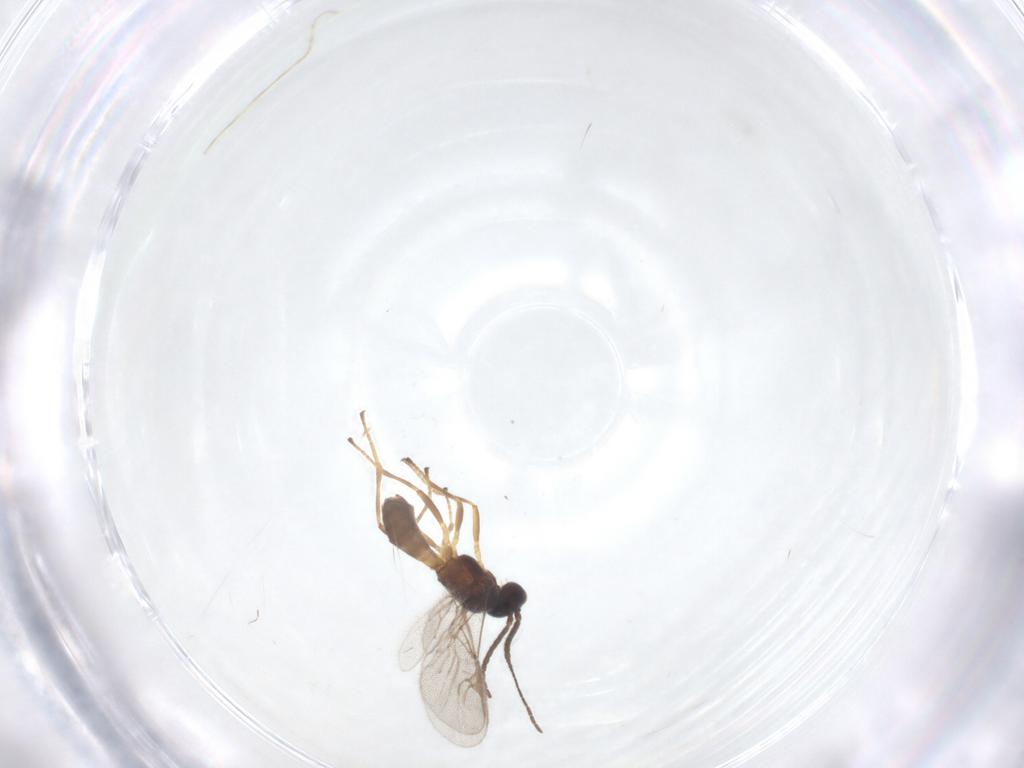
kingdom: Animalia
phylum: Arthropoda
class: Insecta
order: Hymenoptera
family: Braconidae
